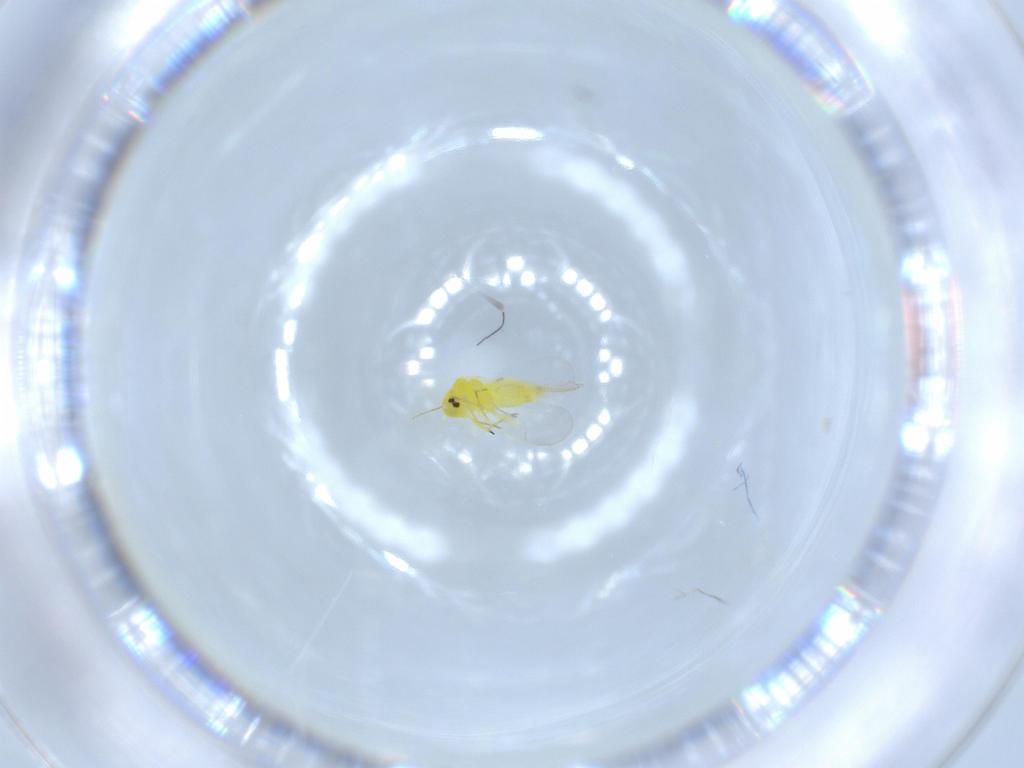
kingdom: Animalia
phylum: Arthropoda
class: Insecta
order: Hemiptera
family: Aleyrodidae
